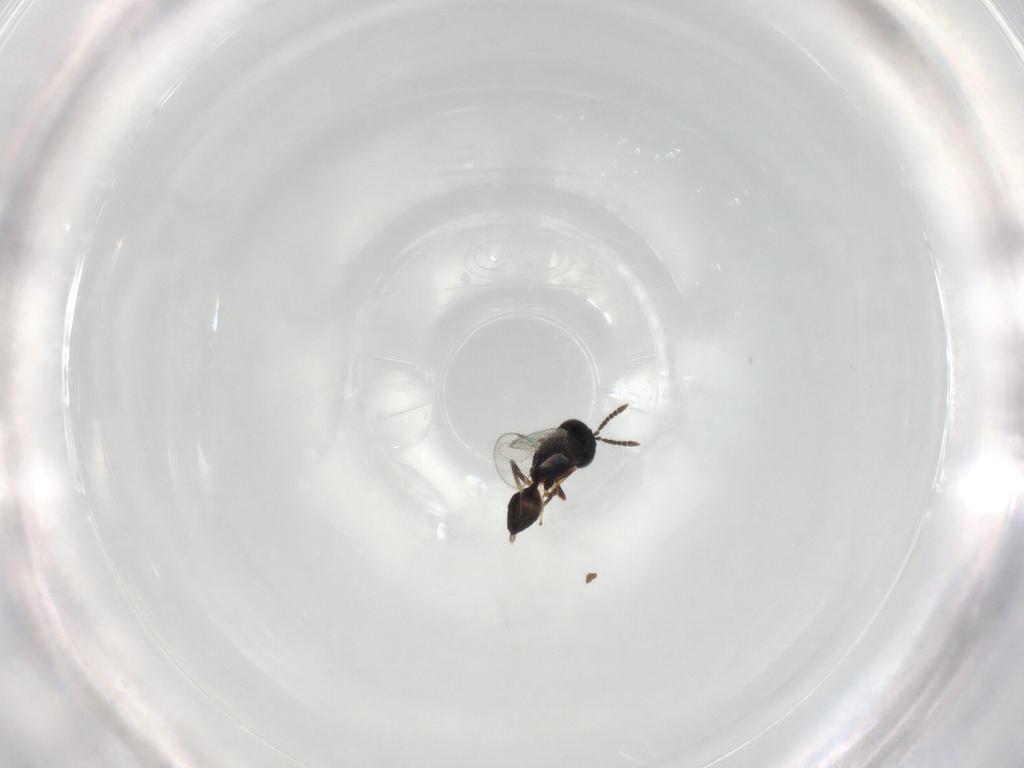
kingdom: Animalia
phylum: Arthropoda
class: Insecta
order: Hymenoptera
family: Pteromalidae
